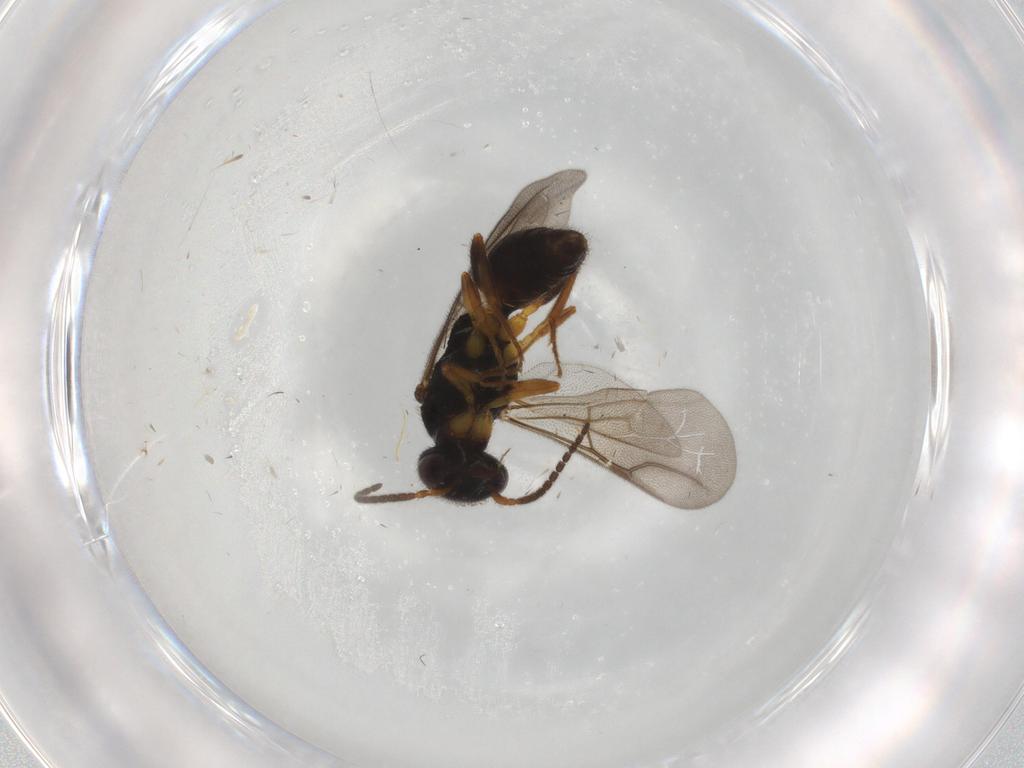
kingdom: Animalia
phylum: Arthropoda
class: Insecta
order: Hymenoptera
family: Bethylidae
